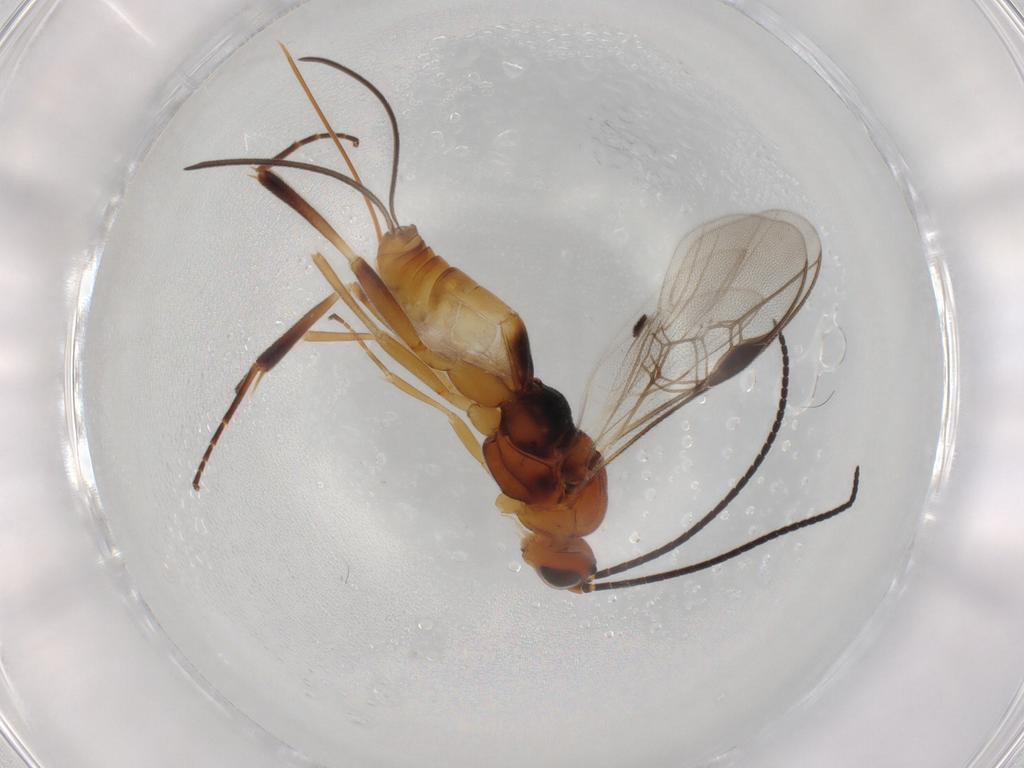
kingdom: Animalia
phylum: Arthropoda
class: Insecta
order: Hymenoptera
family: Braconidae
